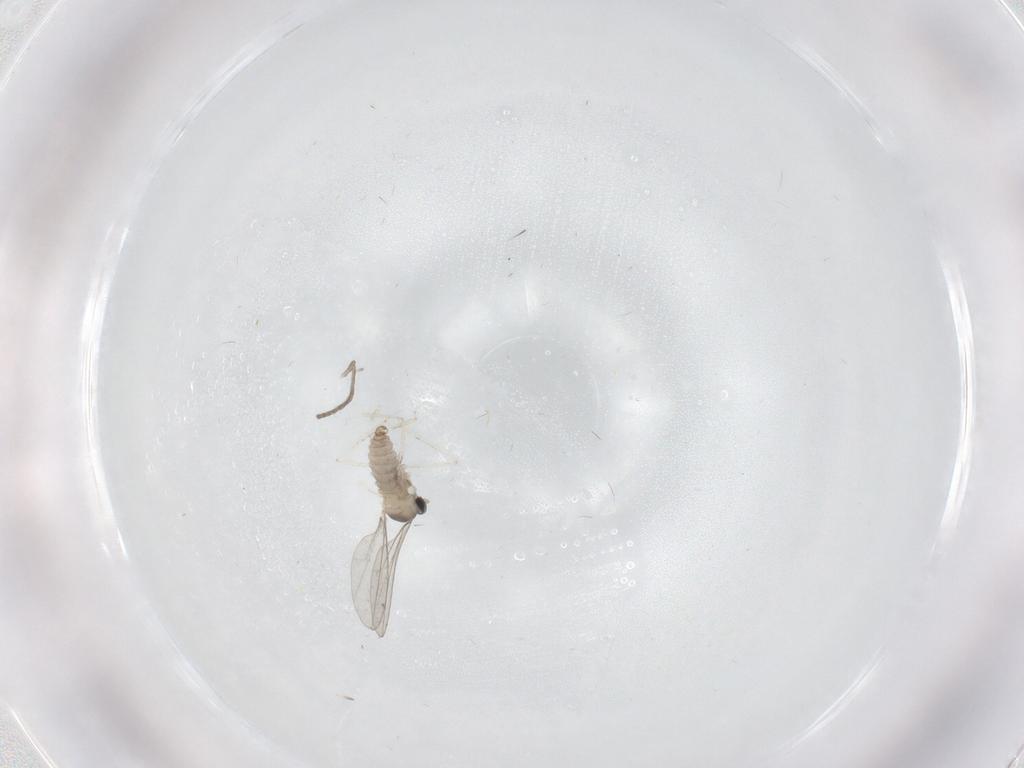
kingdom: Animalia
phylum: Arthropoda
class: Insecta
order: Diptera
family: Cecidomyiidae
